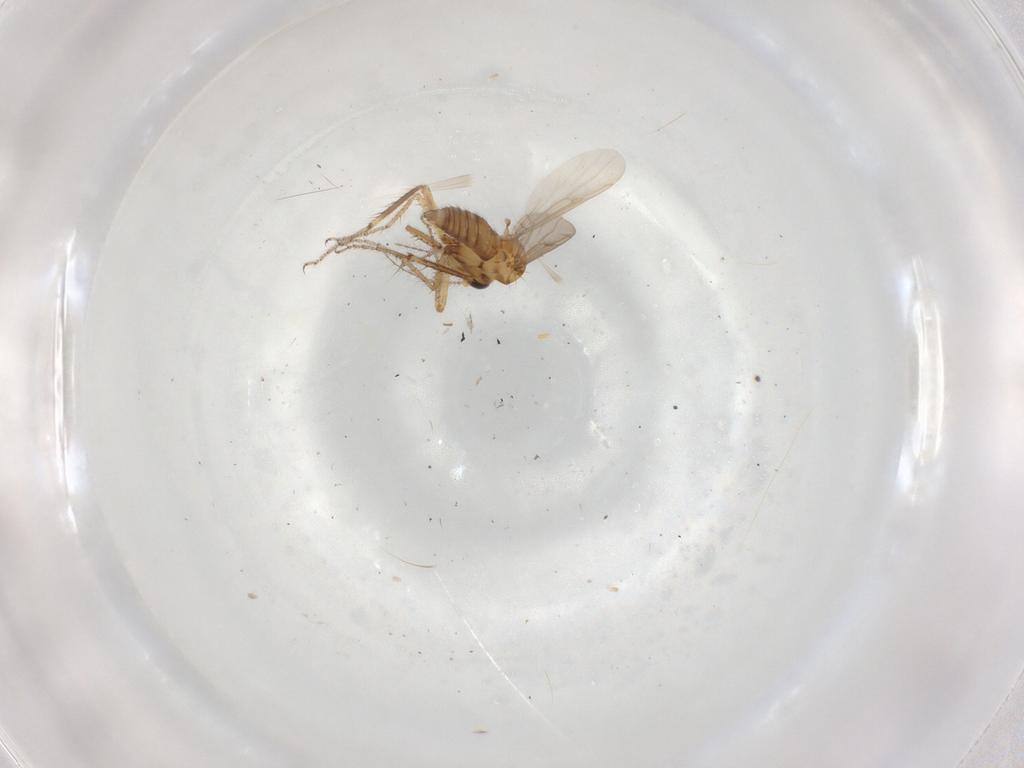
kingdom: Animalia
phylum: Arthropoda
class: Insecta
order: Diptera
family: Ceratopogonidae
